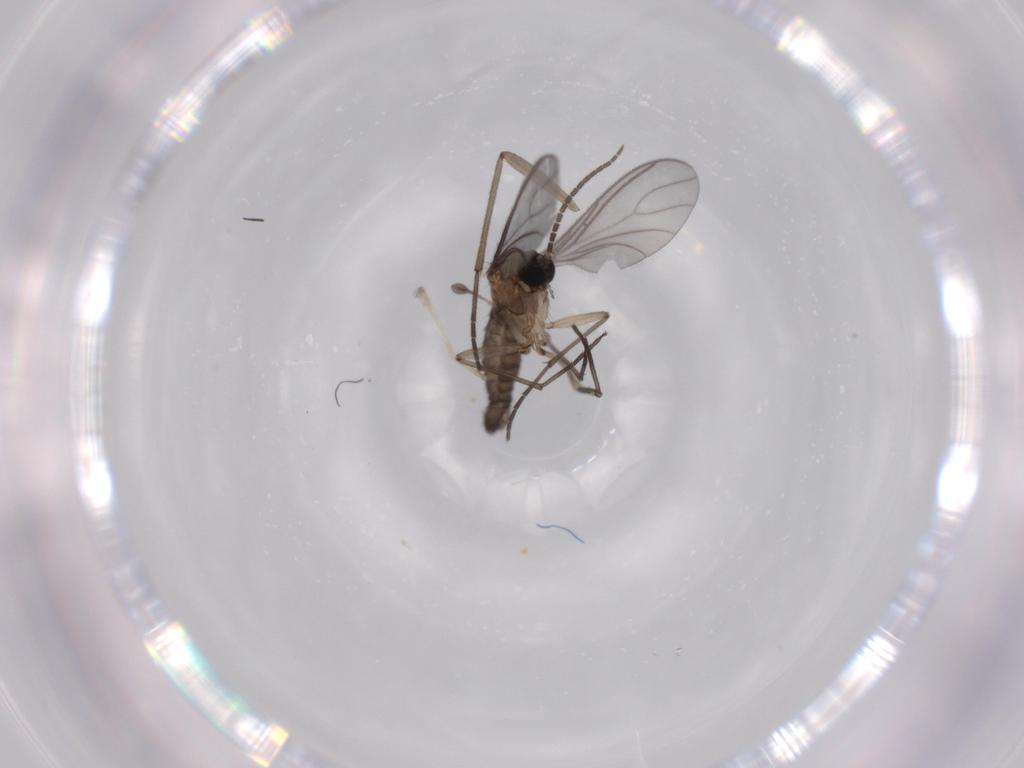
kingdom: Animalia
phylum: Arthropoda
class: Insecta
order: Diptera
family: Sciaridae
